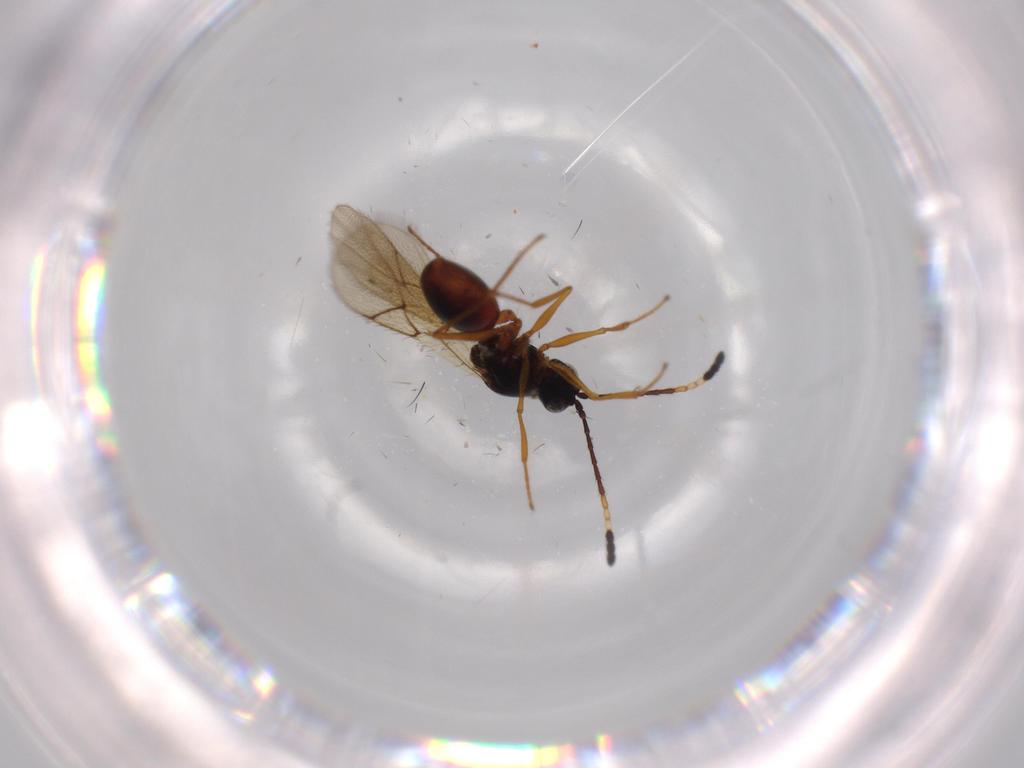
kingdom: Animalia
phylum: Arthropoda
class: Insecta
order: Hymenoptera
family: Figitidae
